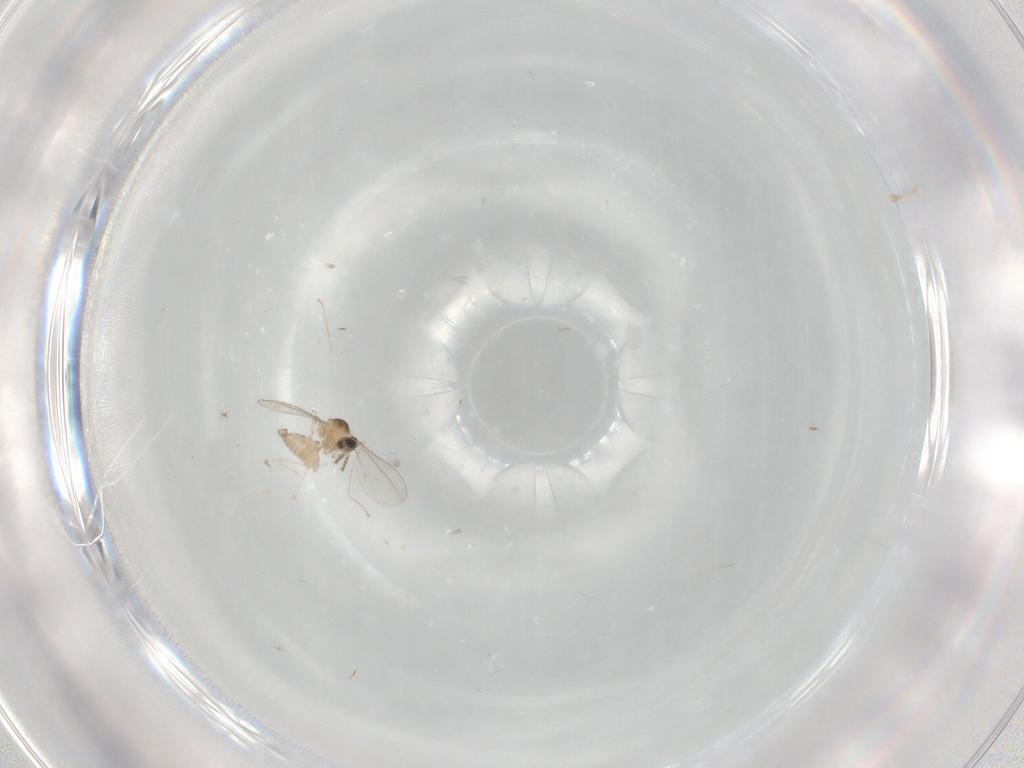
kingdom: Animalia
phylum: Arthropoda
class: Insecta
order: Diptera
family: Cecidomyiidae
